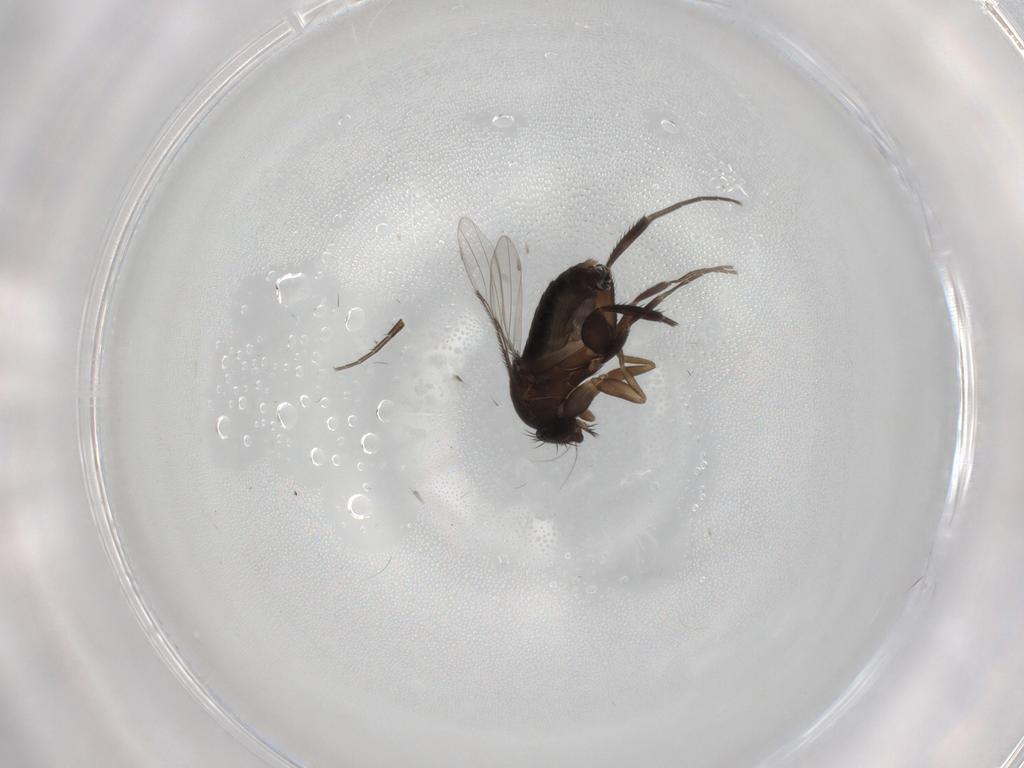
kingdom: Animalia
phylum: Arthropoda
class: Insecta
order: Diptera
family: Phoridae
